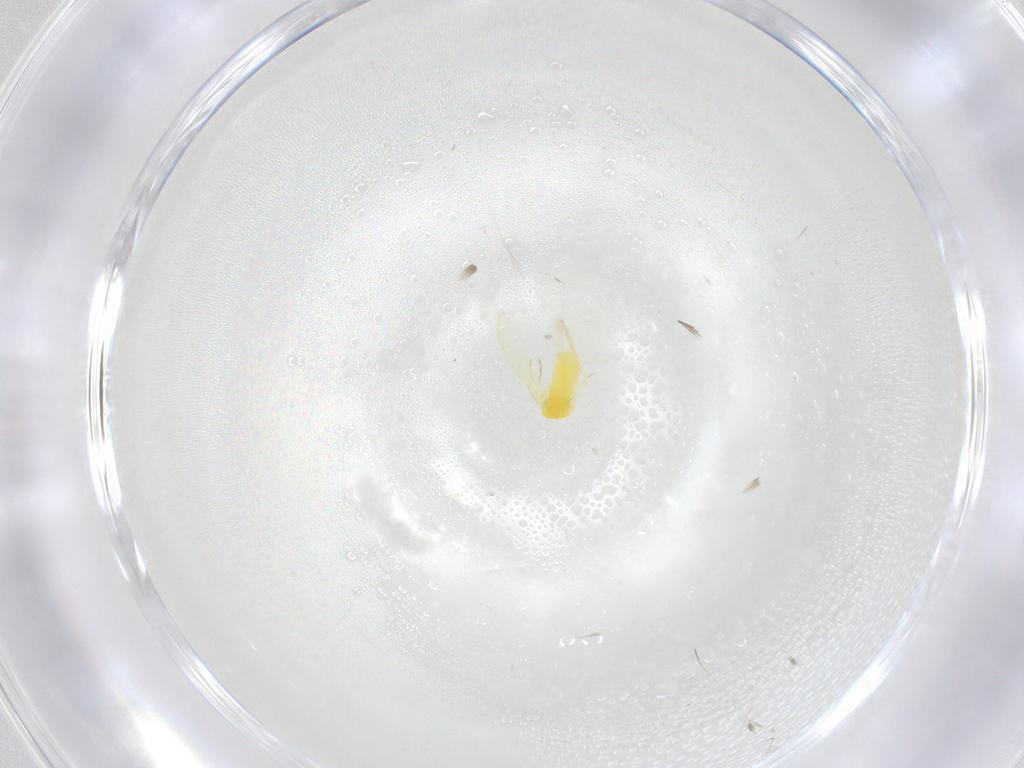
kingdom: Animalia
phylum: Arthropoda
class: Insecta
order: Hemiptera
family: Aleyrodidae
